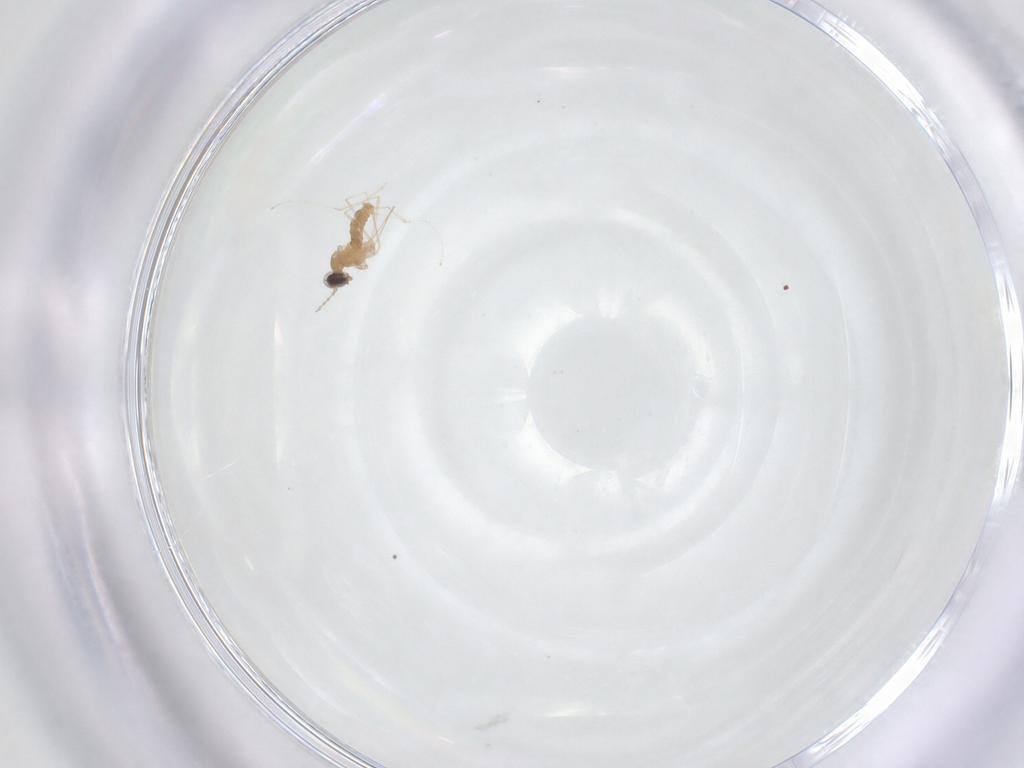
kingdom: Animalia
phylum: Arthropoda
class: Insecta
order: Diptera
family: Cecidomyiidae
